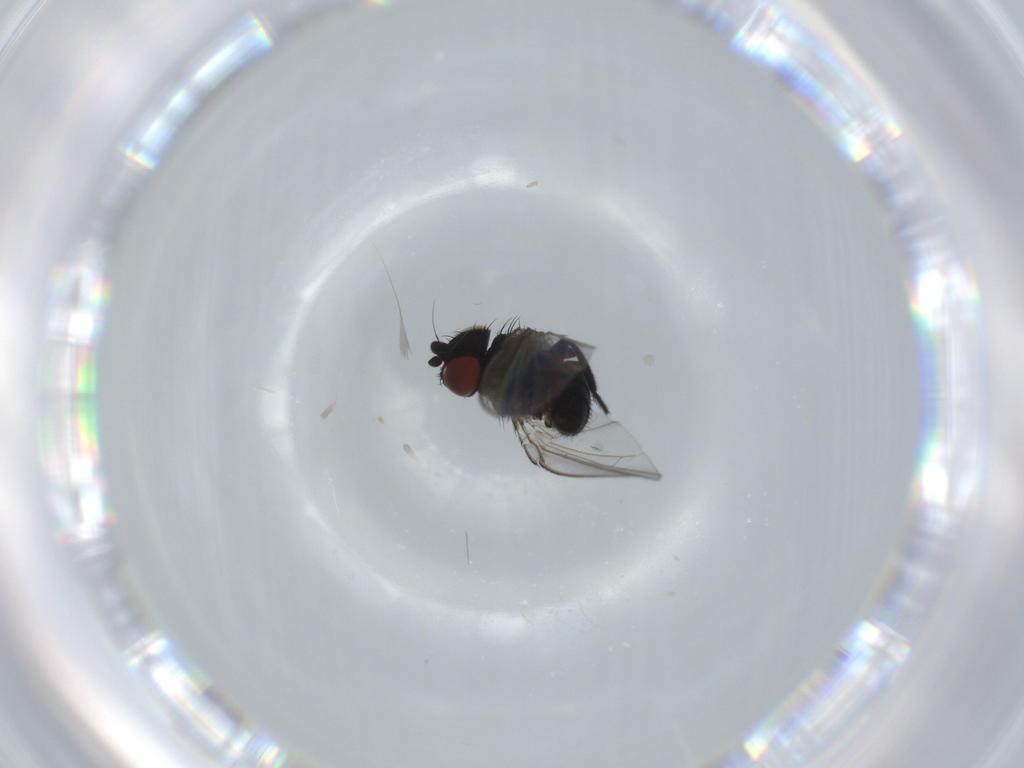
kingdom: Animalia
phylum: Arthropoda
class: Insecta
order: Diptera
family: Milichiidae
